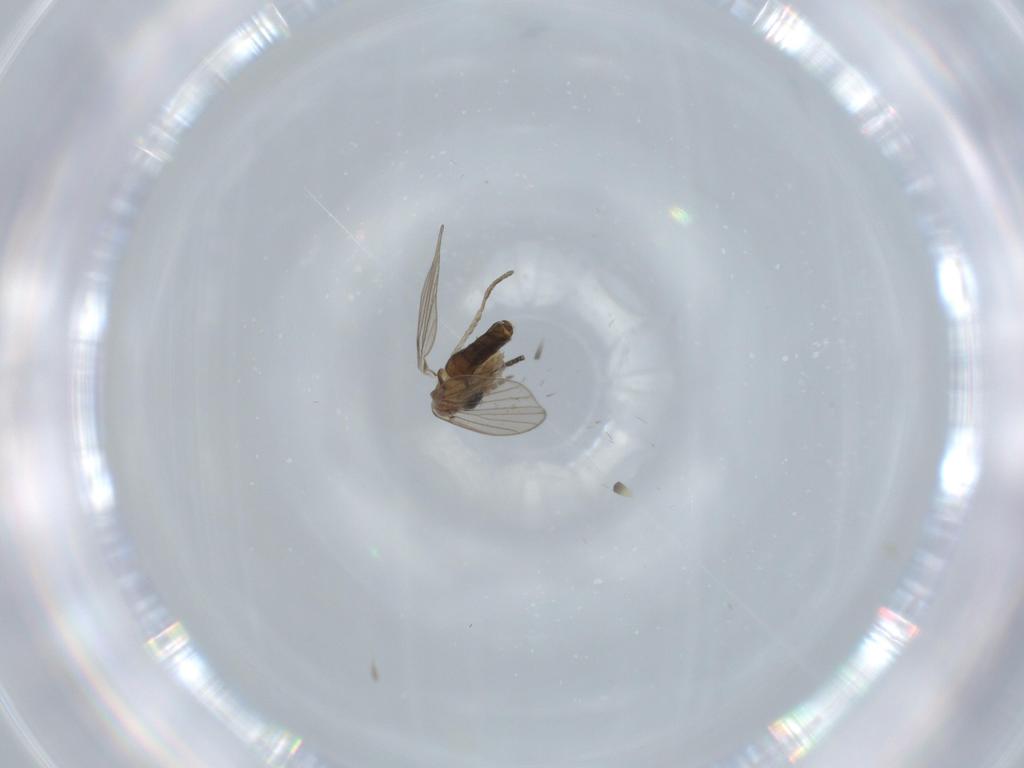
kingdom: Animalia
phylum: Arthropoda
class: Insecta
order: Diptera
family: Psychodidae
